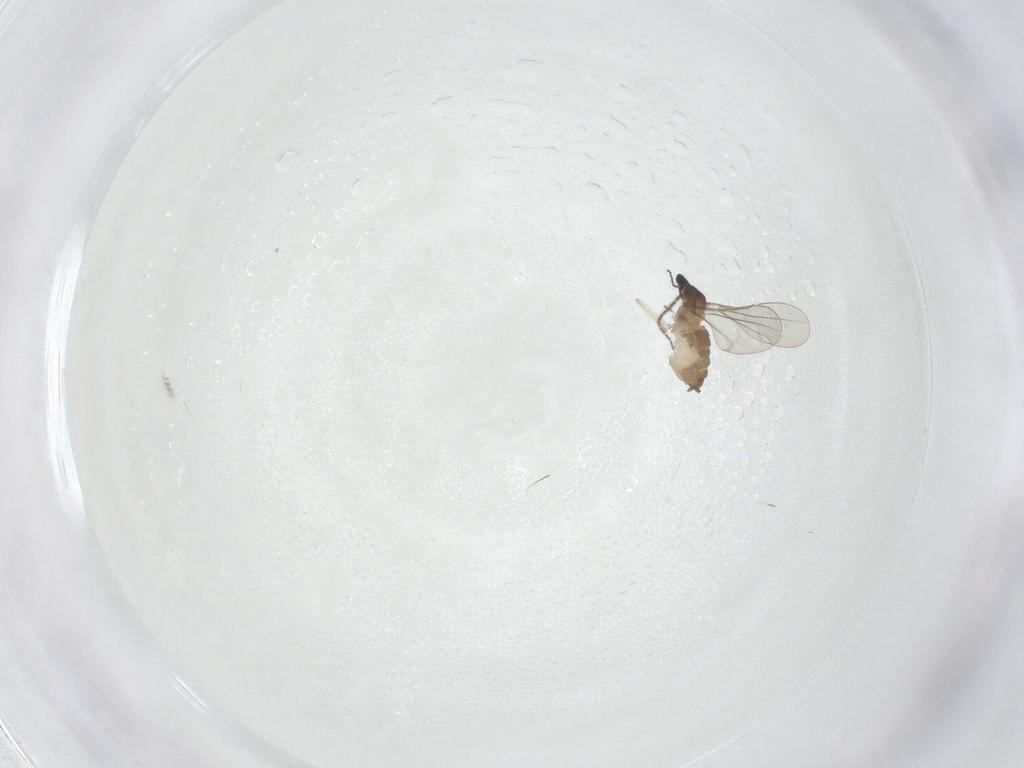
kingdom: Animalia
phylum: Arthropoda
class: Insecta
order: Diptera
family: Cecidomyiidae
